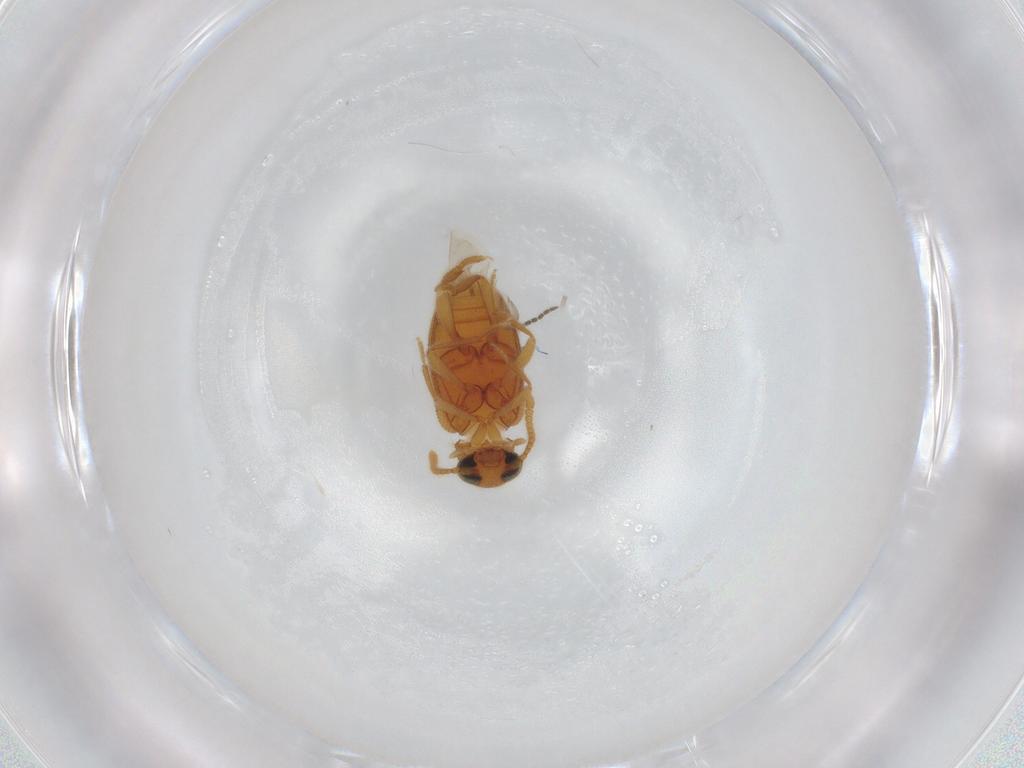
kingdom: Animalia
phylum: Arthropoda
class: Insecta
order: Coleoptera
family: Aderidae
